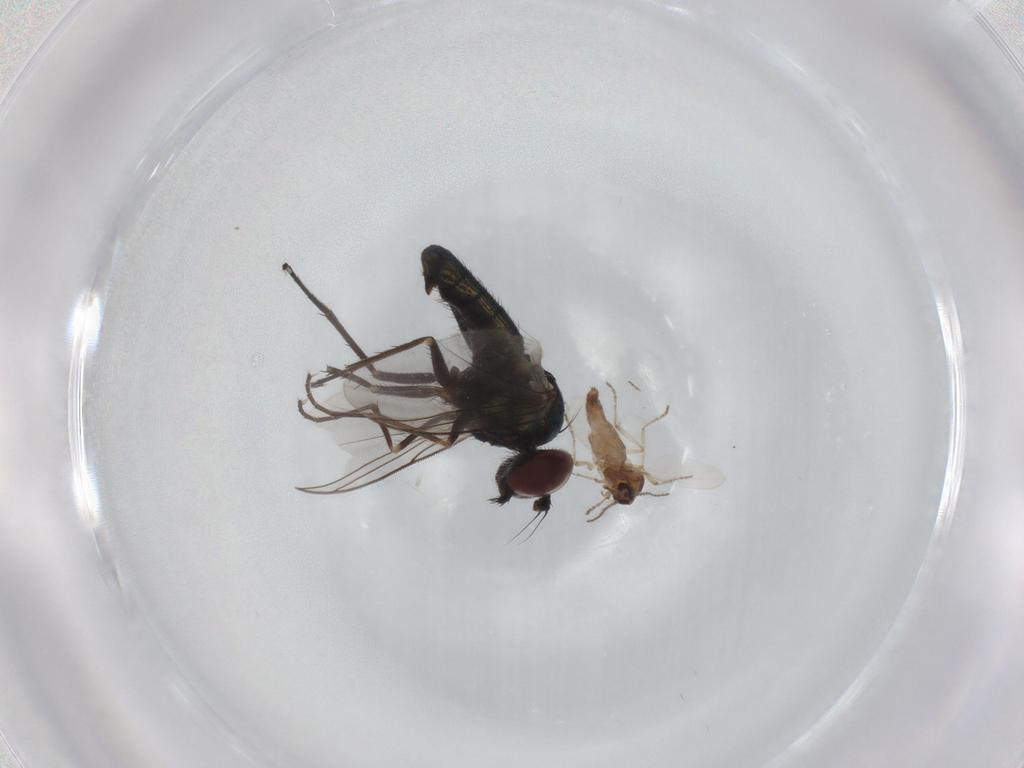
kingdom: Animalia
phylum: Arthropoda
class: Insecta
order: Diptera
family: Ceratopogonidae
